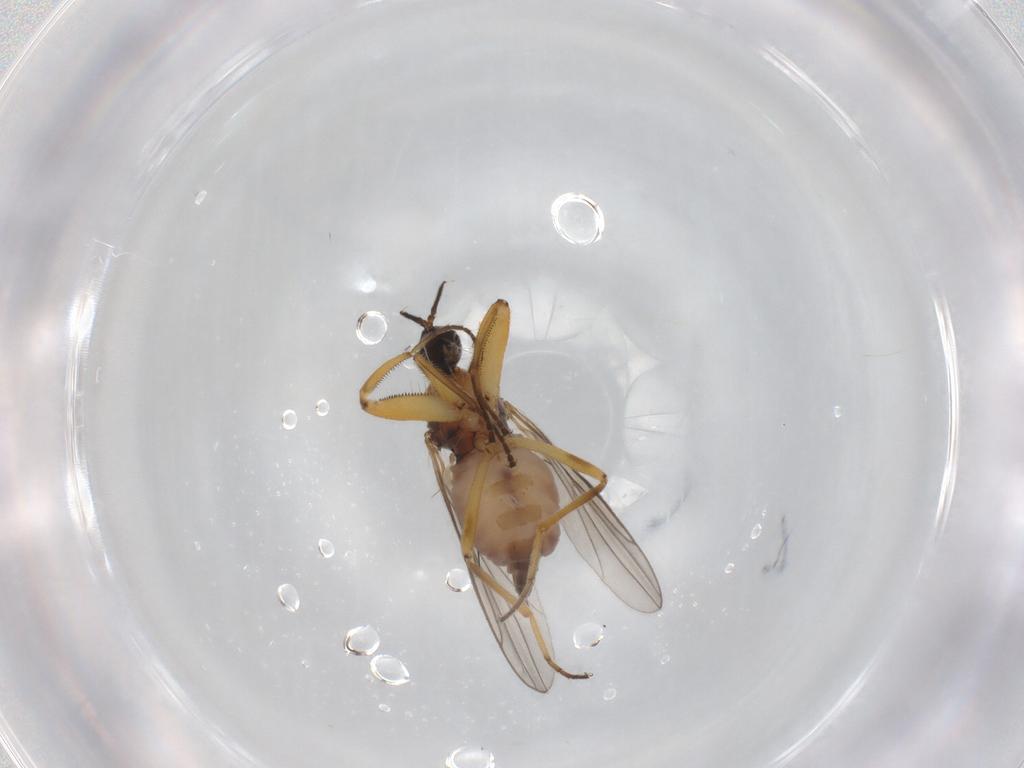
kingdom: Animalia
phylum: Arthropoda
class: Insecta
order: Diptera
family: Hybotidae
